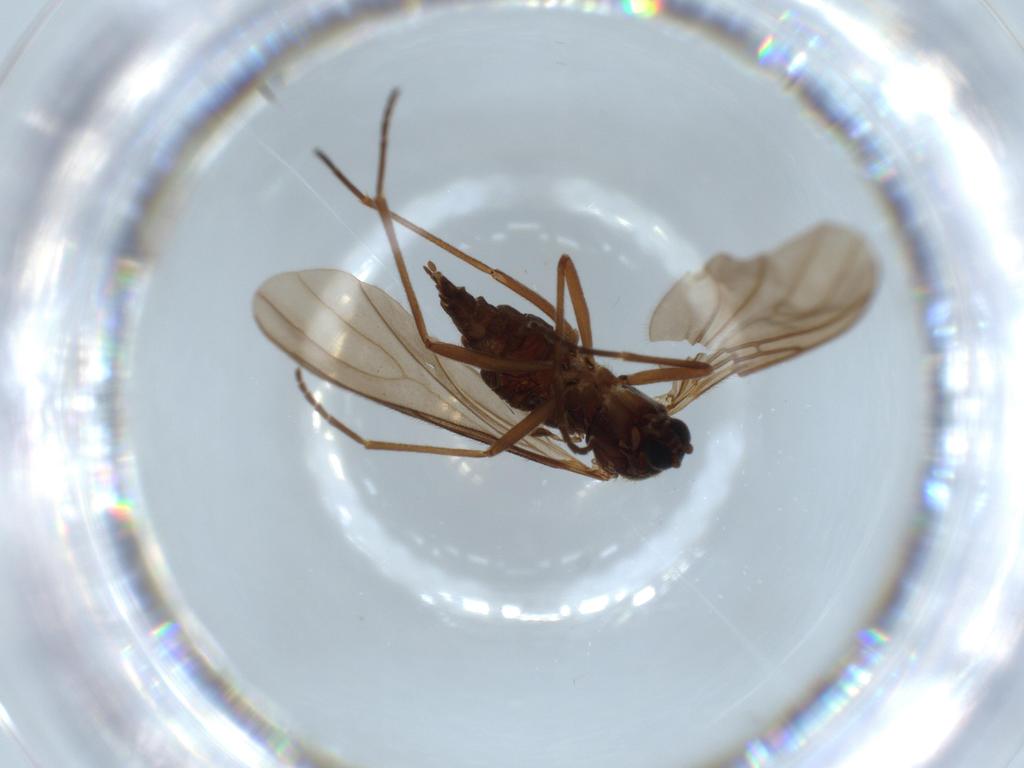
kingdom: Animalia
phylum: Arthropoda
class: Insecta
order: Diptera
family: Sciaridae
